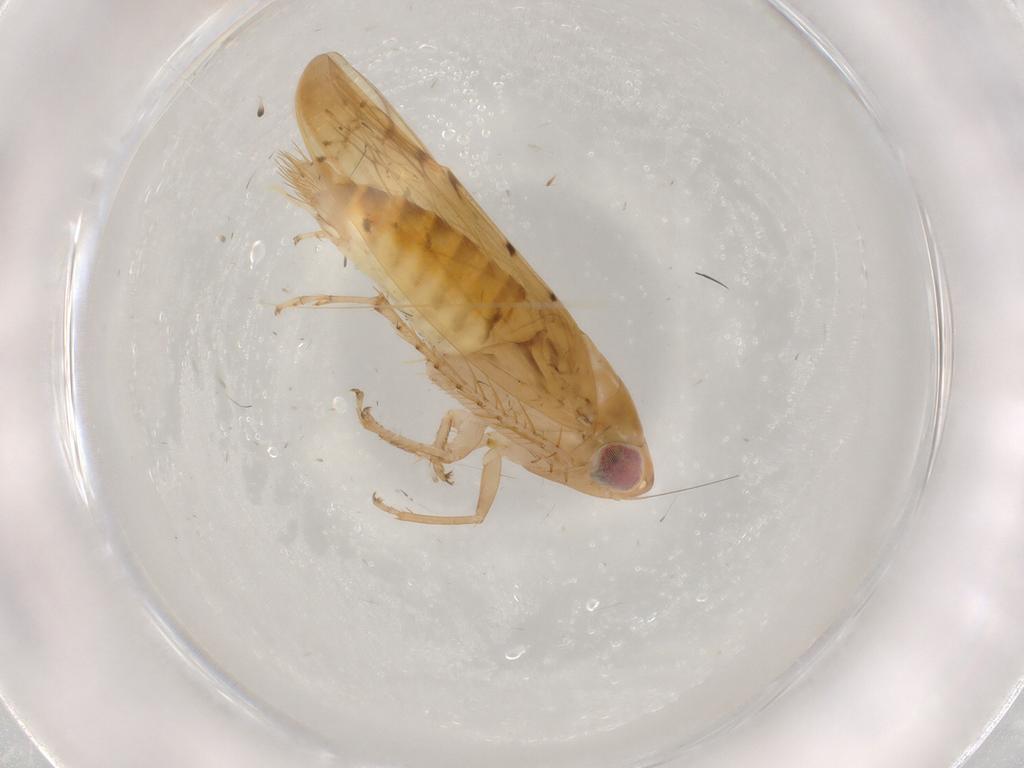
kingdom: Animalia
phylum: Arthropoda
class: Insecta
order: Hemiptera
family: Cicadellidae
